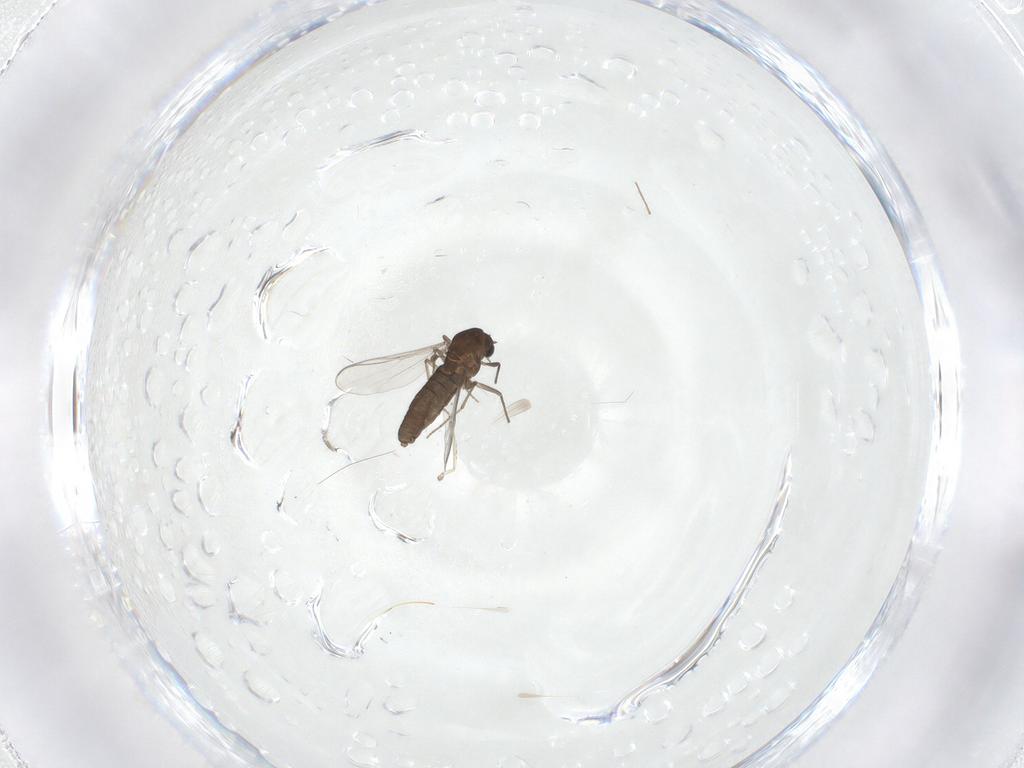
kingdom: Animalia
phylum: Arthropoda
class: Insecta
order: Diptera
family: Chironomidae
